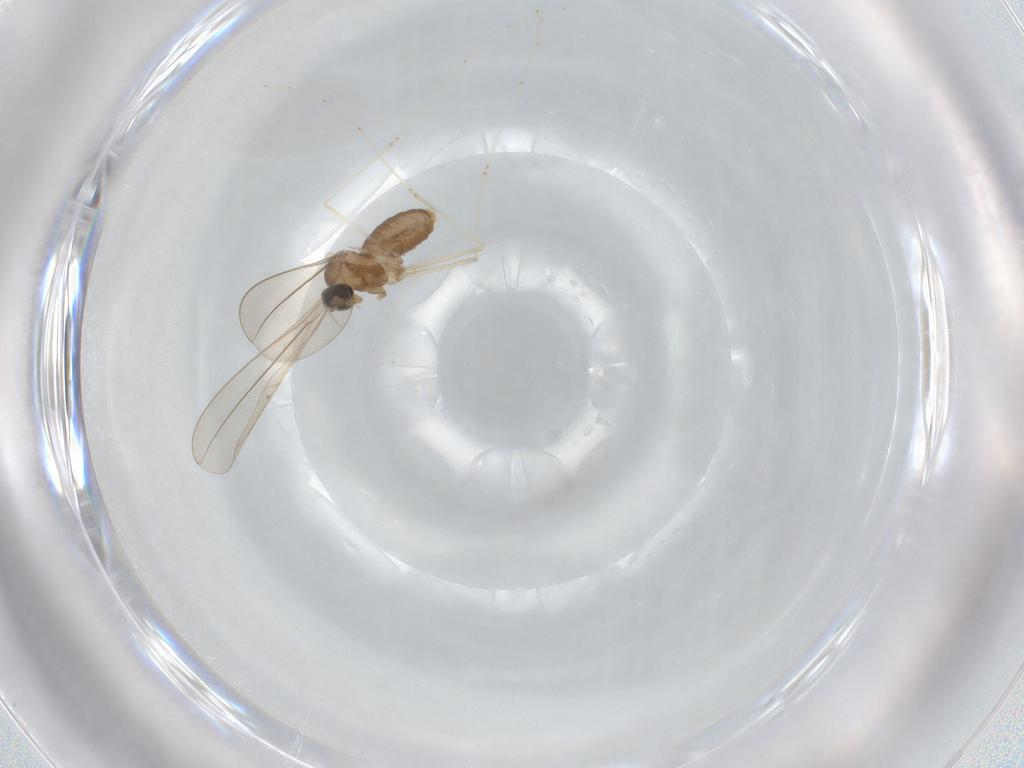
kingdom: Animalia
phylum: Arthropoda
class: Insecta
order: Diptera
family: Cecidomyiidae
